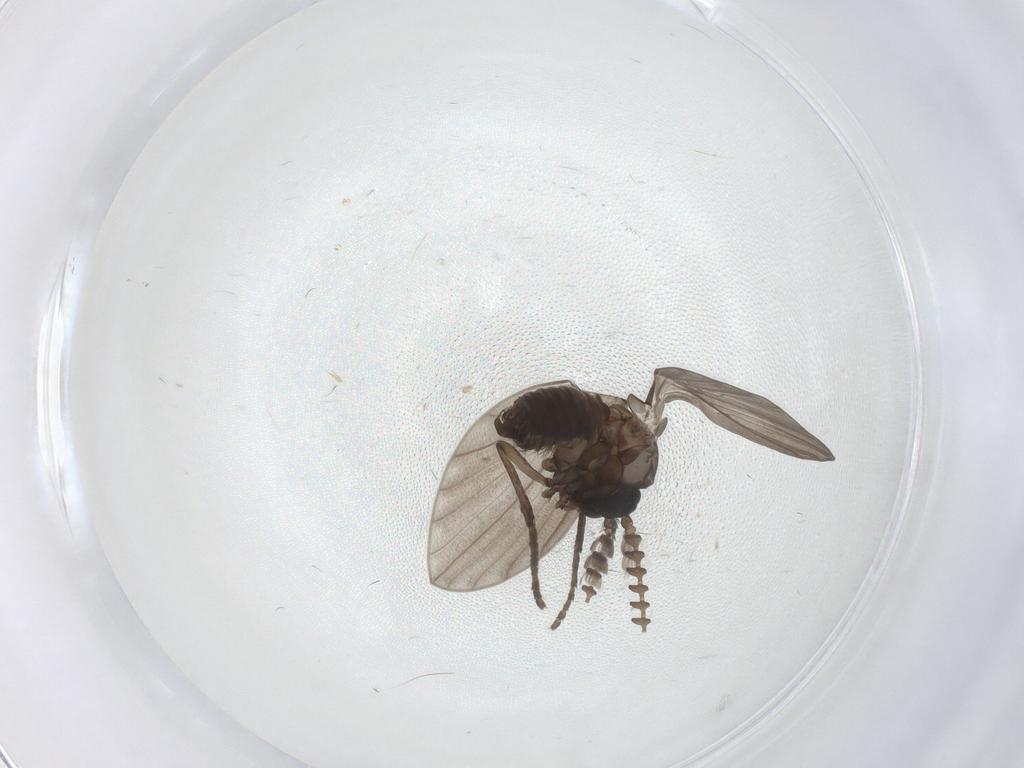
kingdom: Animalia
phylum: Arthropoda
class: Insecta
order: Diptera
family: Psychodidae
